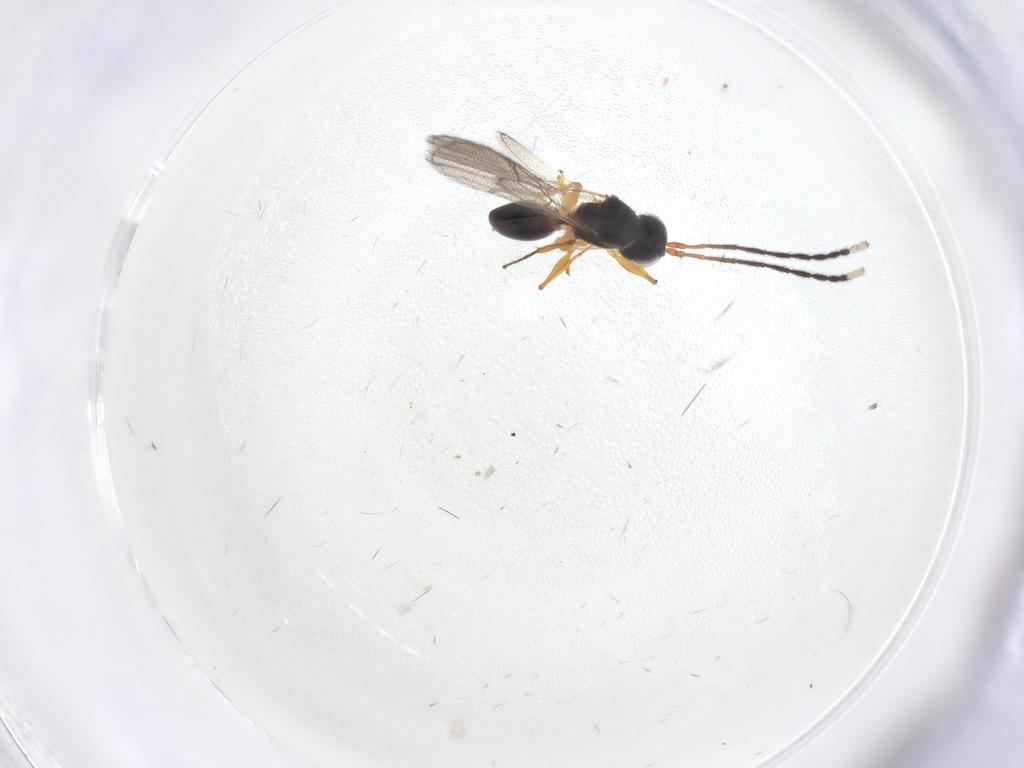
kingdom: Animalia
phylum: Arthropoda
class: Insecta
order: Hymenoptera
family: Figitidae
